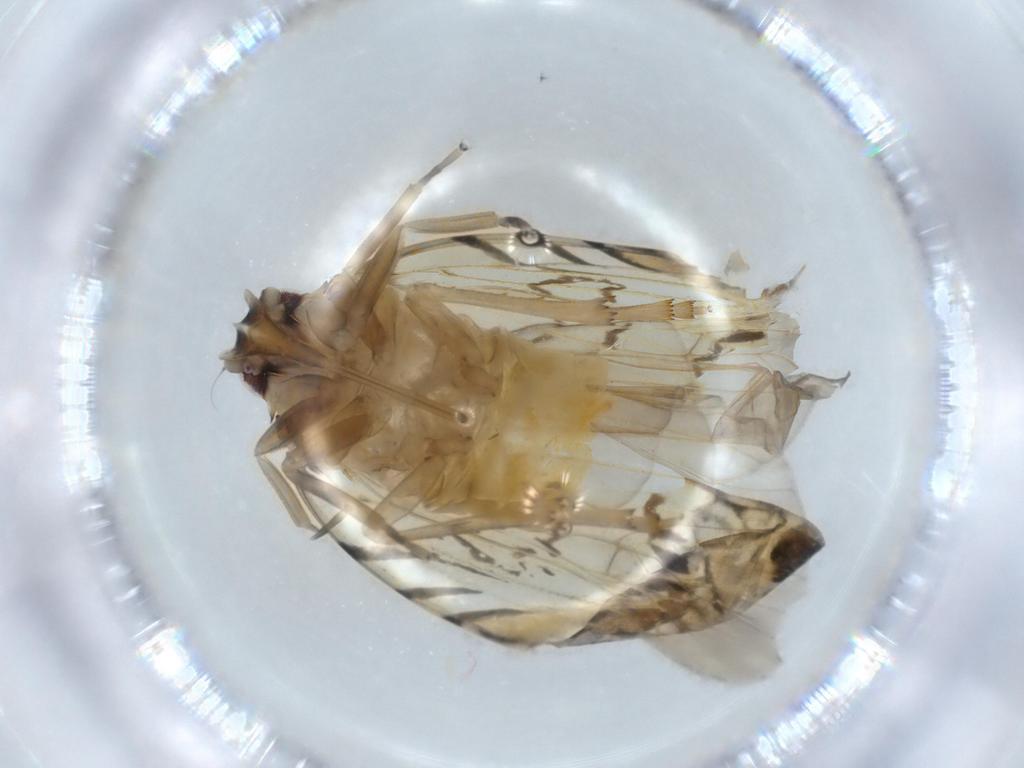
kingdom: Animalia
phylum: Arthropoda
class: Insecta
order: Hemiptera
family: Cixiidae
